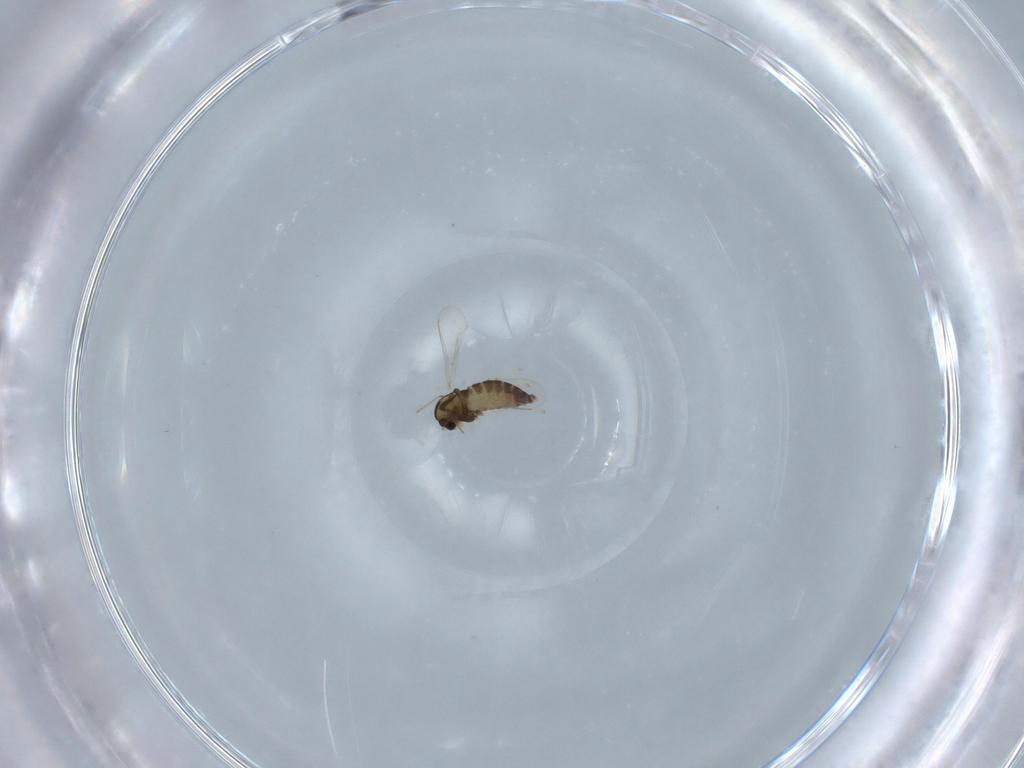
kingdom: Animalia
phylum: Arthropoda
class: Insecta
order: Diptera
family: Chironomidae
